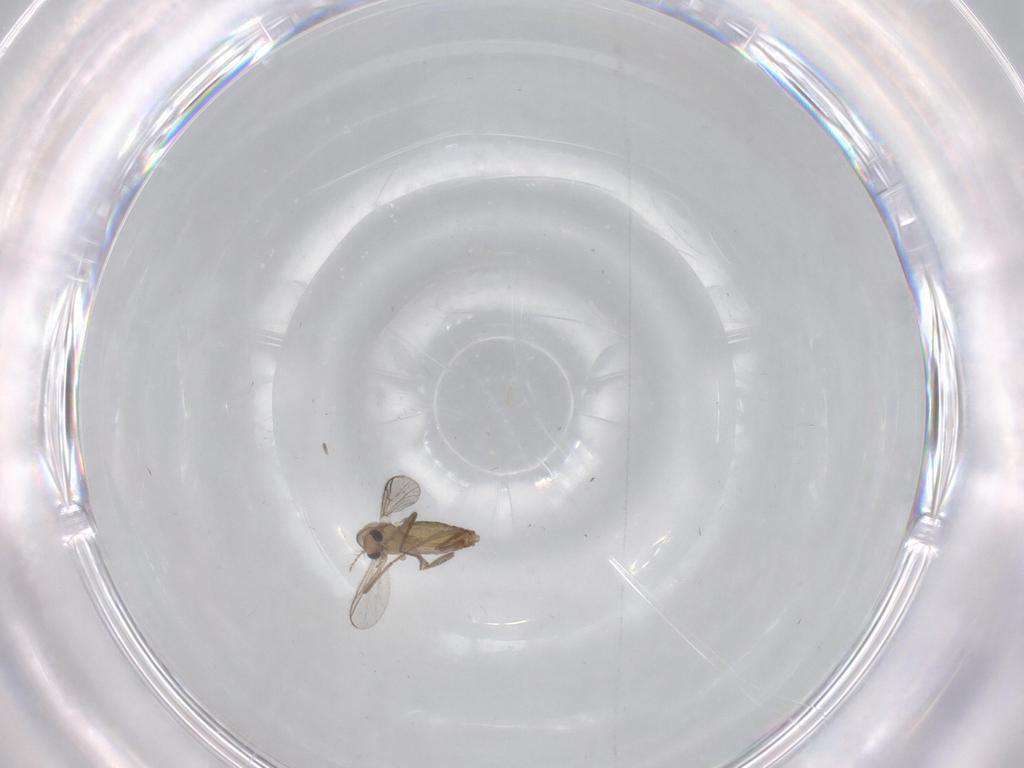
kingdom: Animalia
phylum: Arthropoda
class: Insecta
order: Diptera
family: Chironomidae
